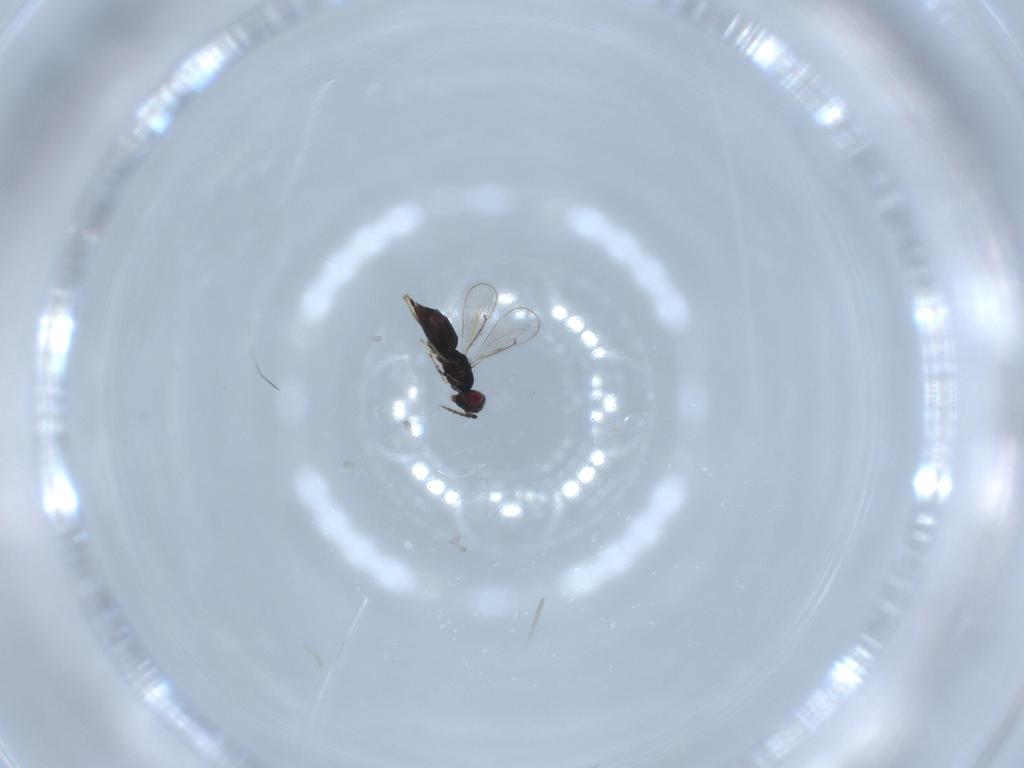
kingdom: Animalia
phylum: Arthropoda
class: Insecta
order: Hymenoptera
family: Eulophidae
